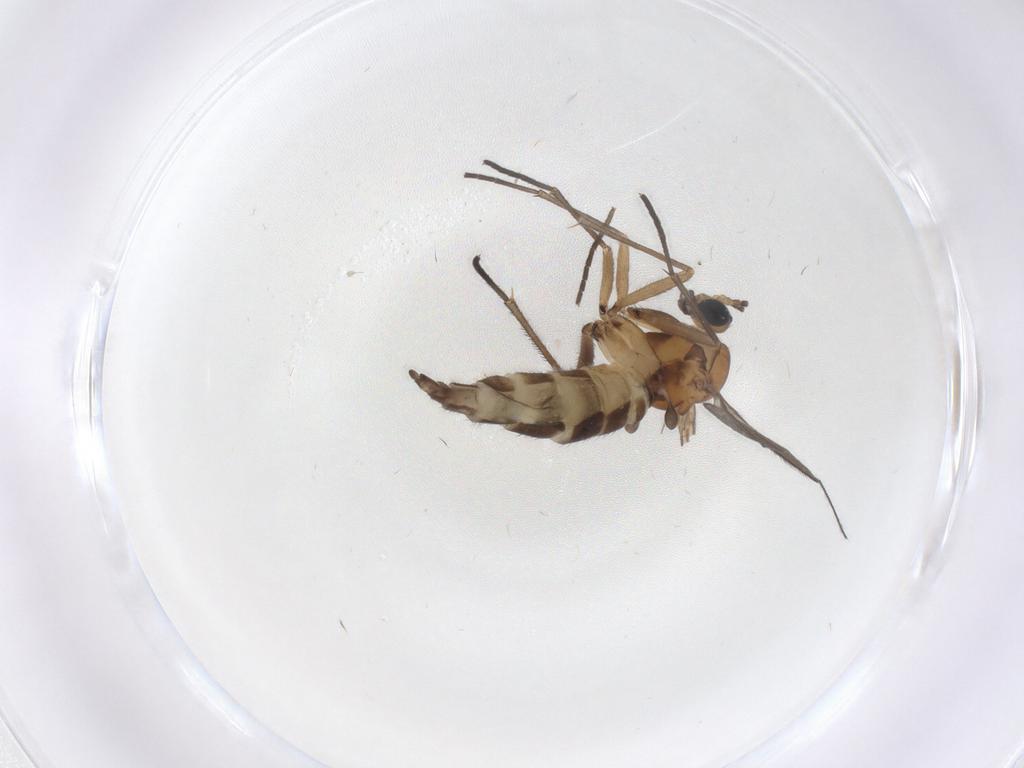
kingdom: Animalia
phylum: Arthropoda
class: Insecta
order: Diptera
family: Sciaridae
